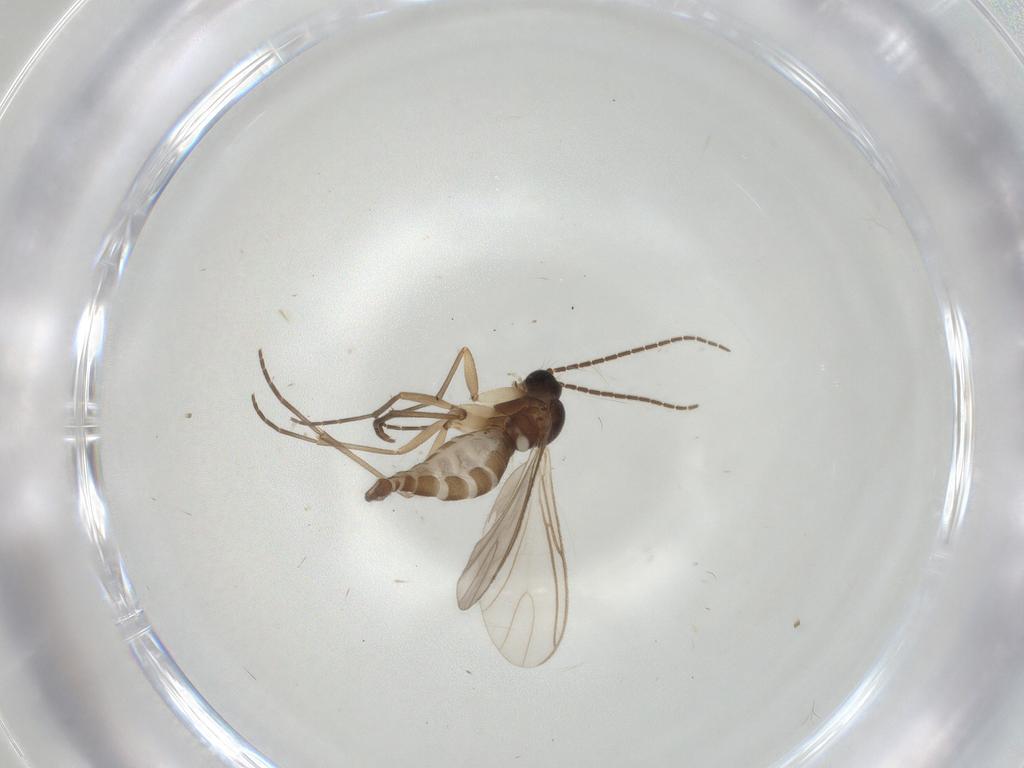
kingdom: Animalia
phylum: Arthropoda
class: Insecta
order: Diptera
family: Sciaridae
